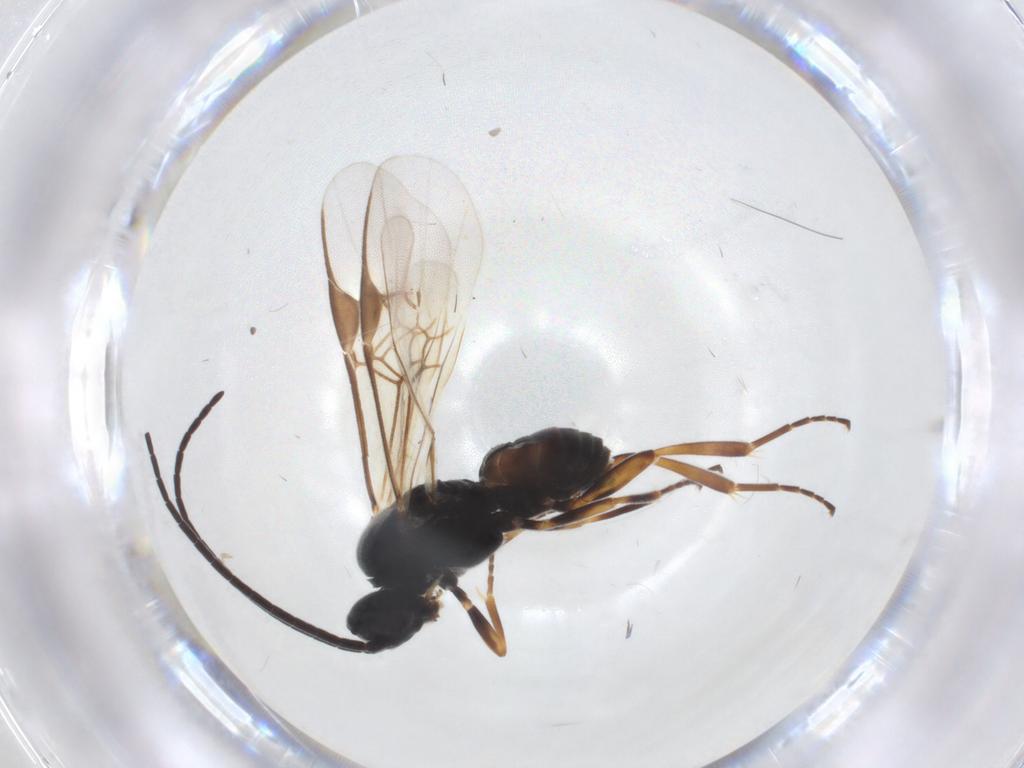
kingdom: Animalia
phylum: Arthropoda
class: Insecta
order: Hymenoptera
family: Braconidae
